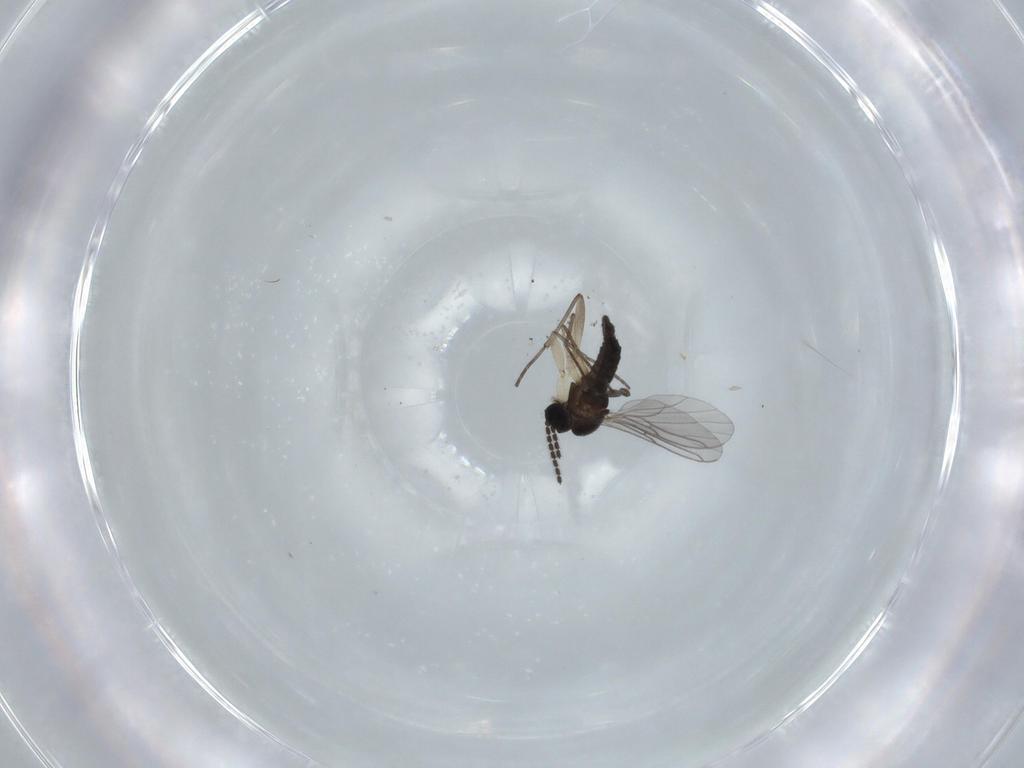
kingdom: Animalia
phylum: Arthropoda
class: Insecta
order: Diptera
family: Sciaridae
